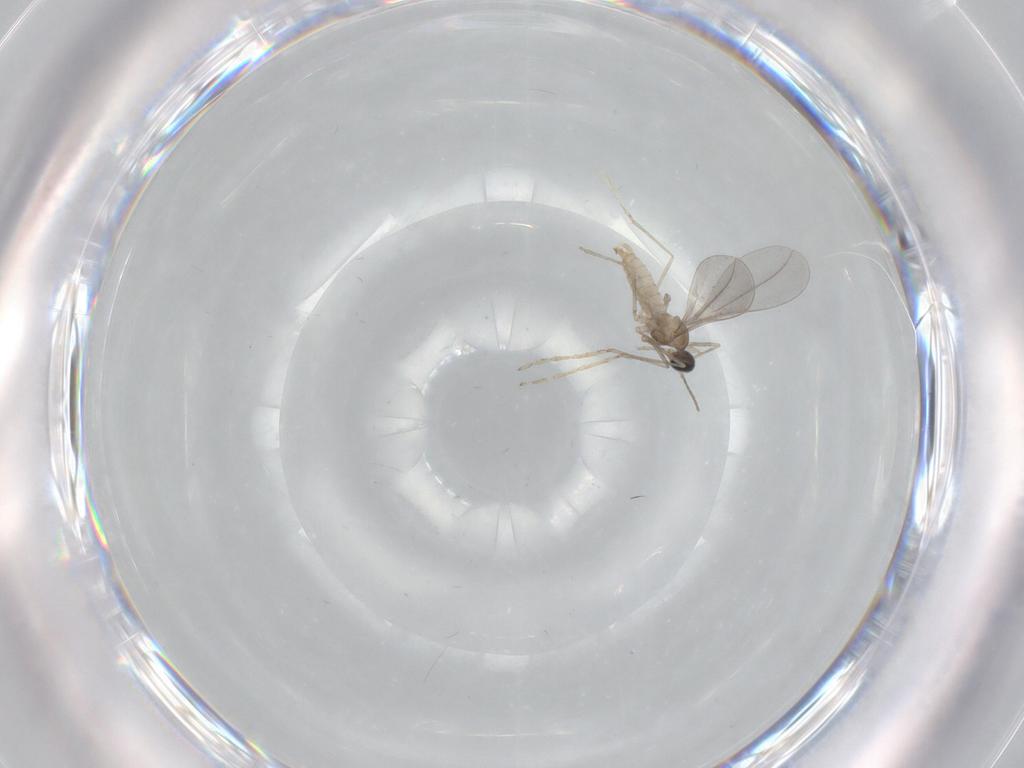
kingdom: Animalia
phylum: Arthropoda
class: Insecta
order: Diptera
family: Cecidomyiidae
